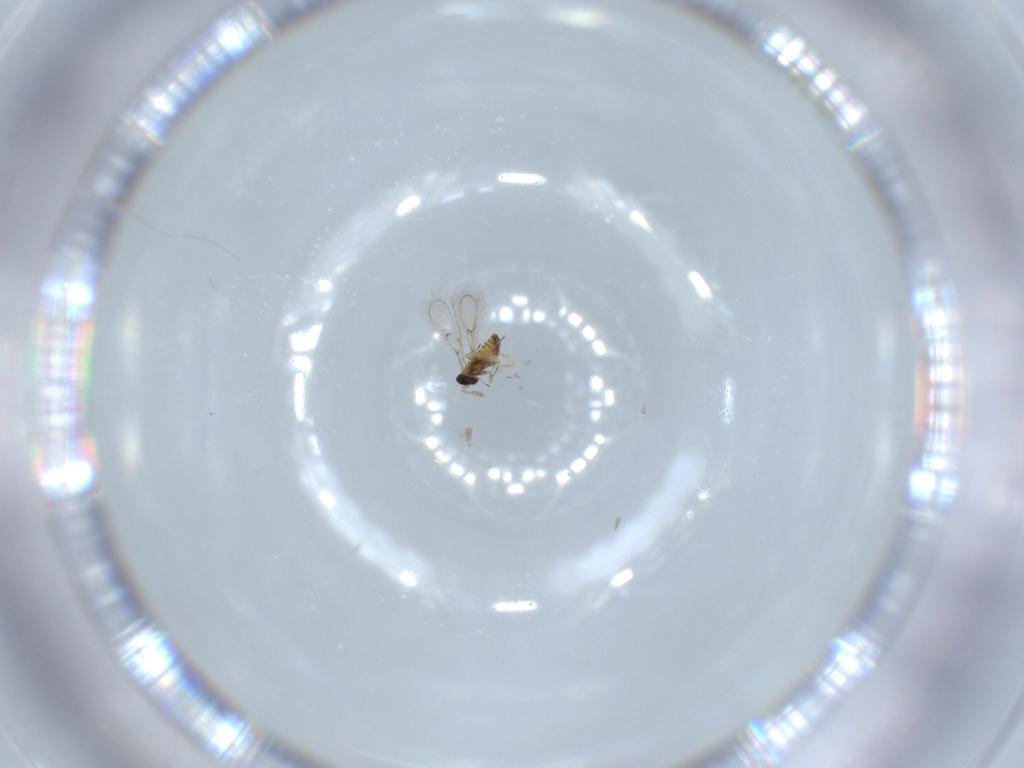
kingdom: Animalia
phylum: Arthropoda
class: Insecta
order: Hymenoptera
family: Trichogrammatidae
